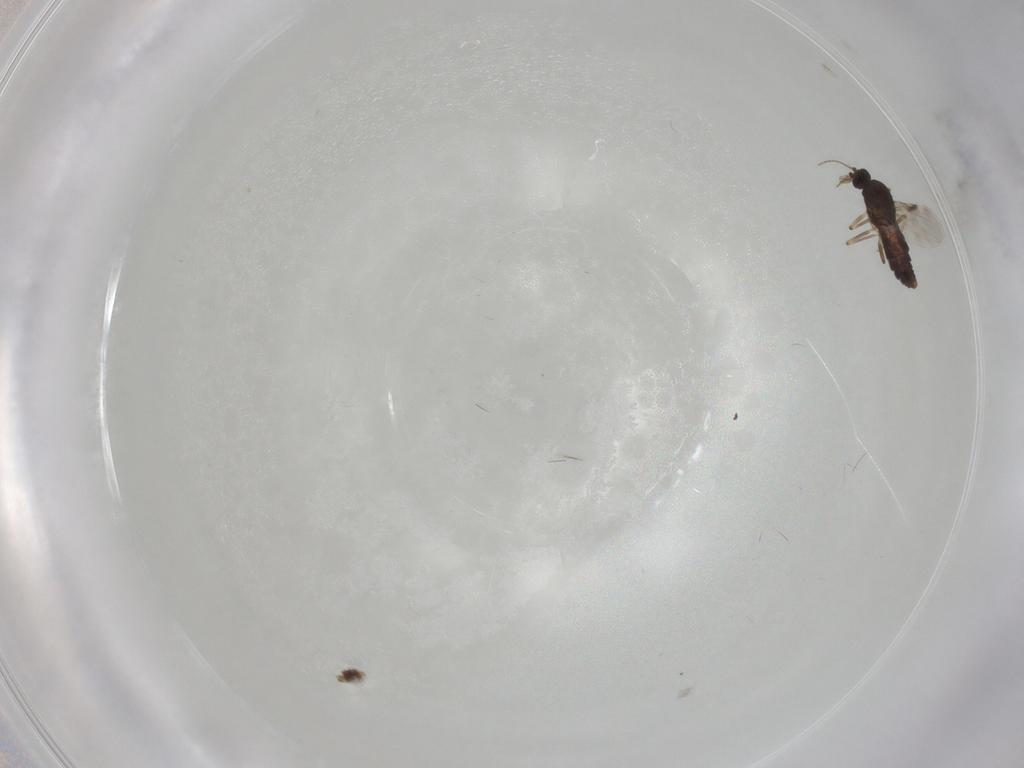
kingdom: Animalia
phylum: Arthropoda
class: Insecta
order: Diptera
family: Cecidomyiidae
